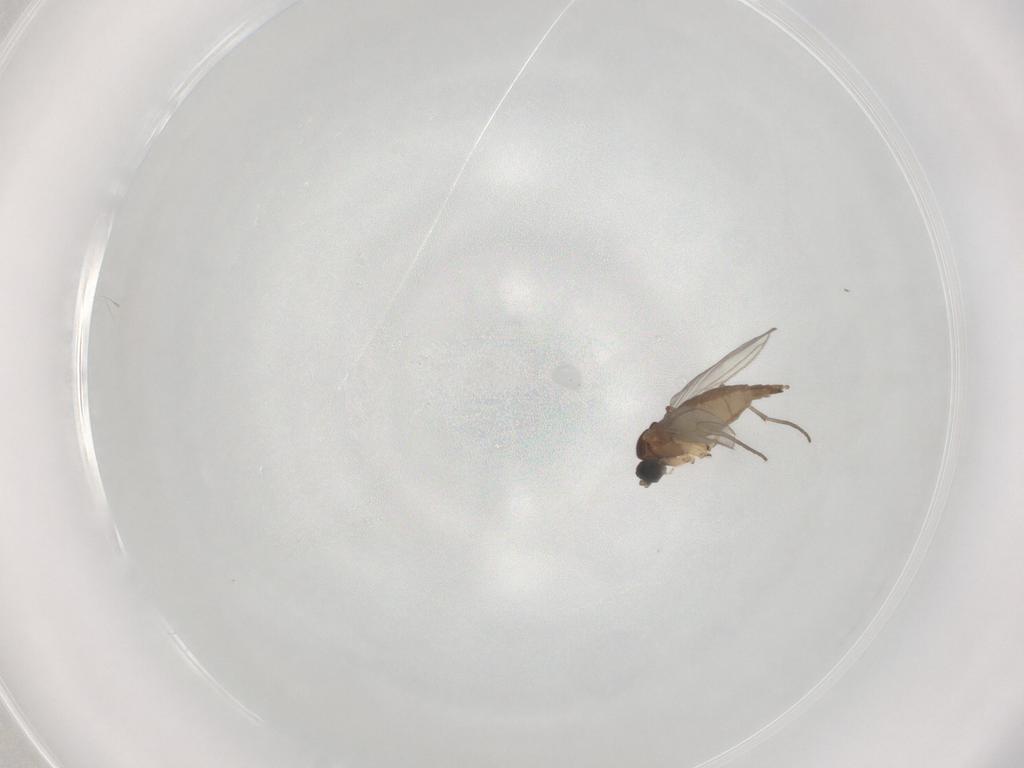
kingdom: Animalia
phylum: Arthropoda
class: Insecta
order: Diptera
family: Sciaridae
